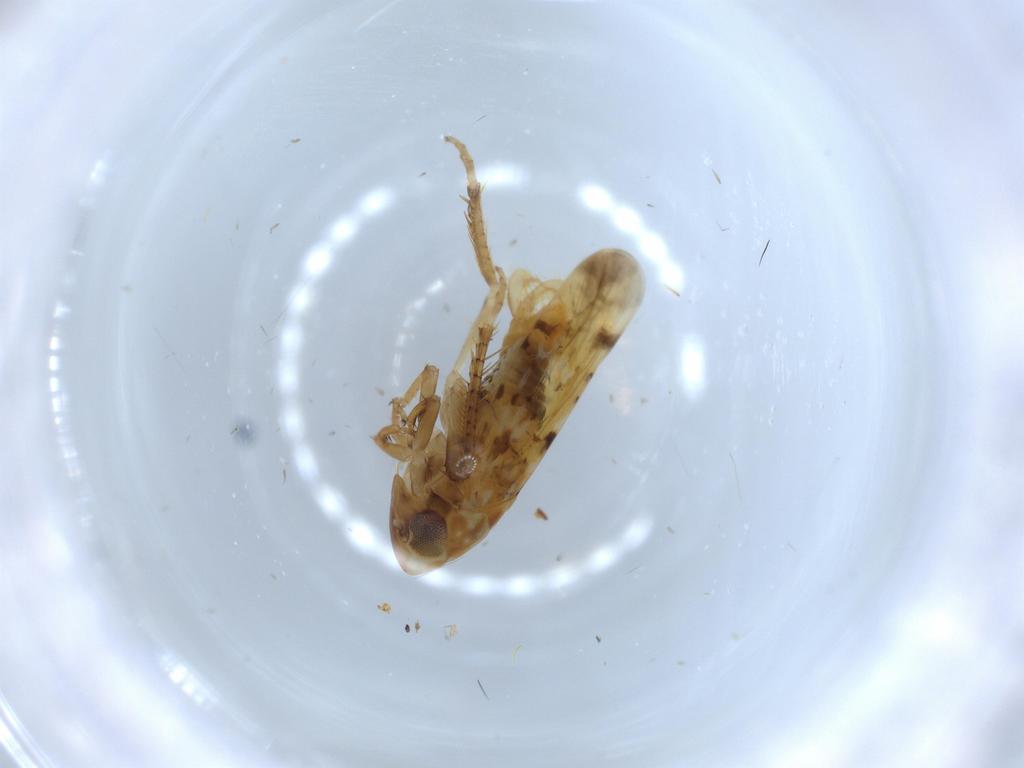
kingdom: Animalia
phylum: Arthropoda
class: Insecta
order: Hemiptera
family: Cicadellidae
